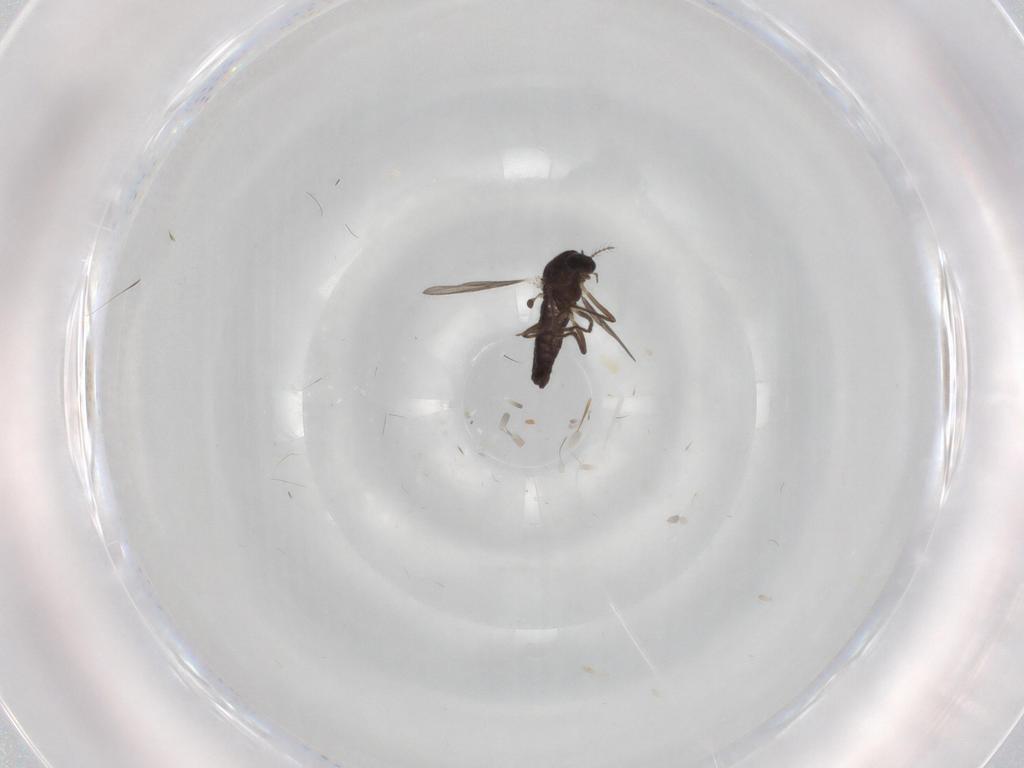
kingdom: Animalia
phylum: Arthropoda
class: Insecta
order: Diptera
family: Chironomidae
